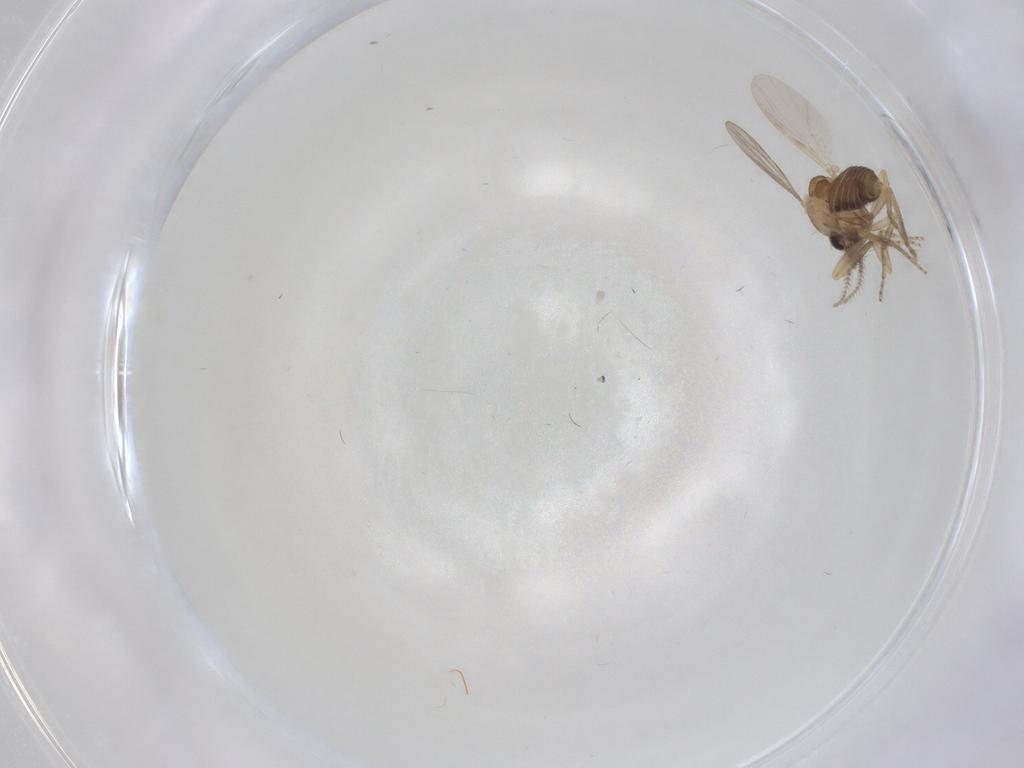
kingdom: Animalia
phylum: Arthropoda
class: Insecta
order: Diptera
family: Ceratopogonidae
